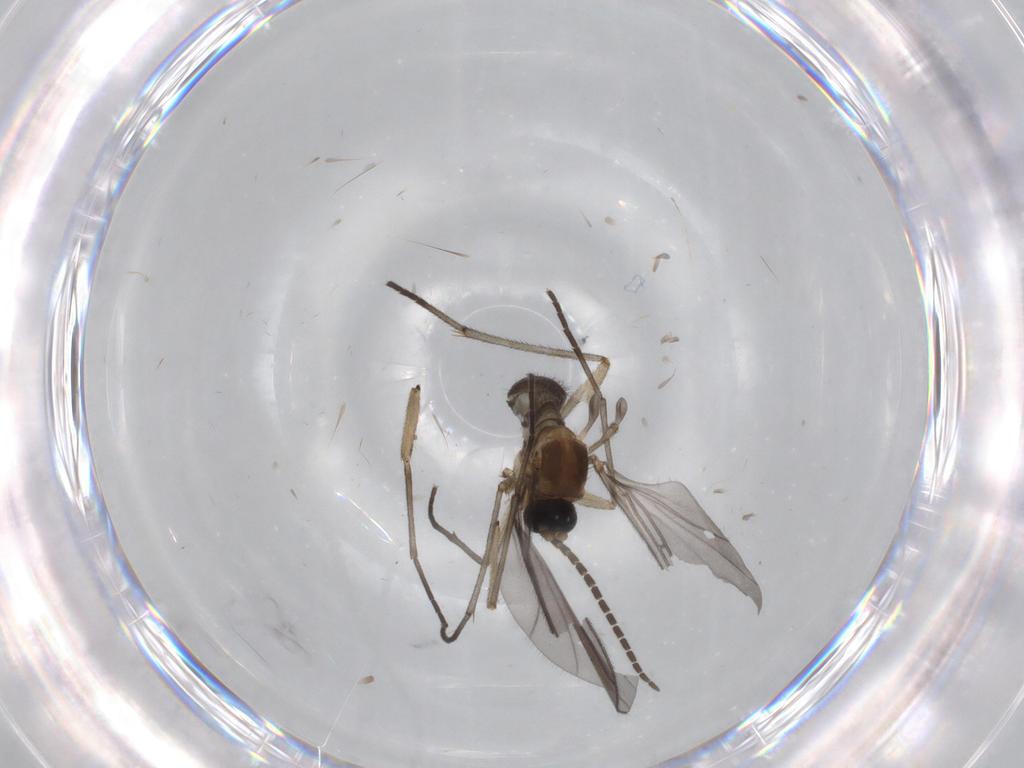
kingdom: Animalia
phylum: Arthropoda
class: Insecta
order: Diptera
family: Sciaridae
